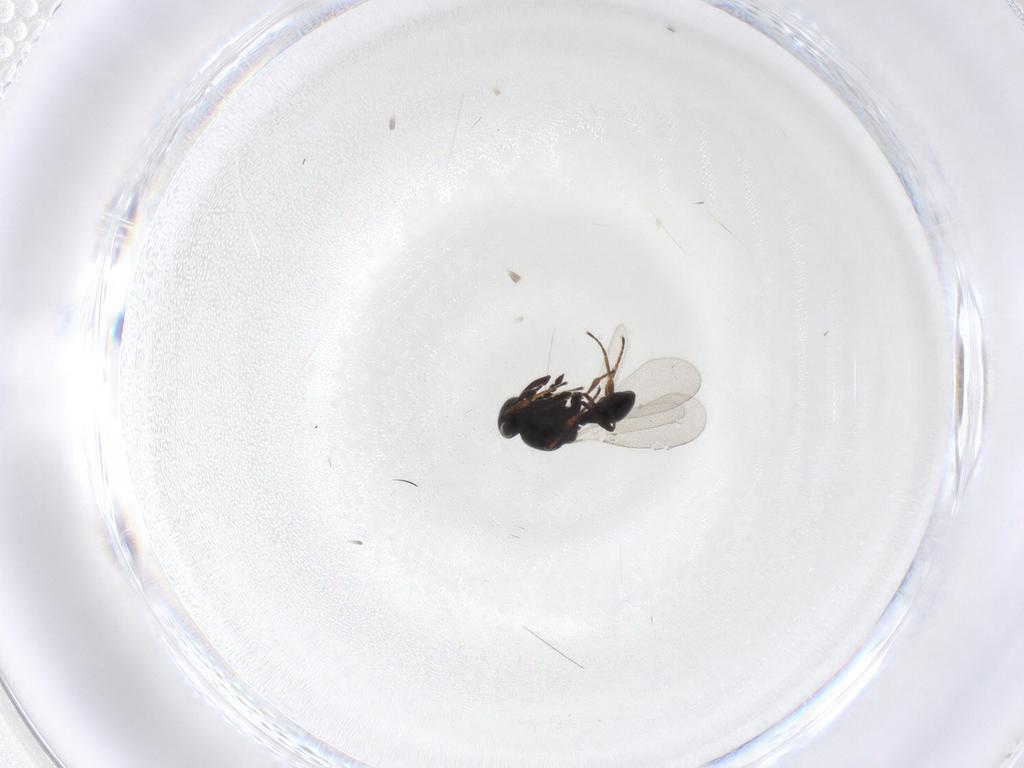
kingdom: Animalia
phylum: Arthropoda
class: Insecta
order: Hymenoptera
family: Platygastridae
